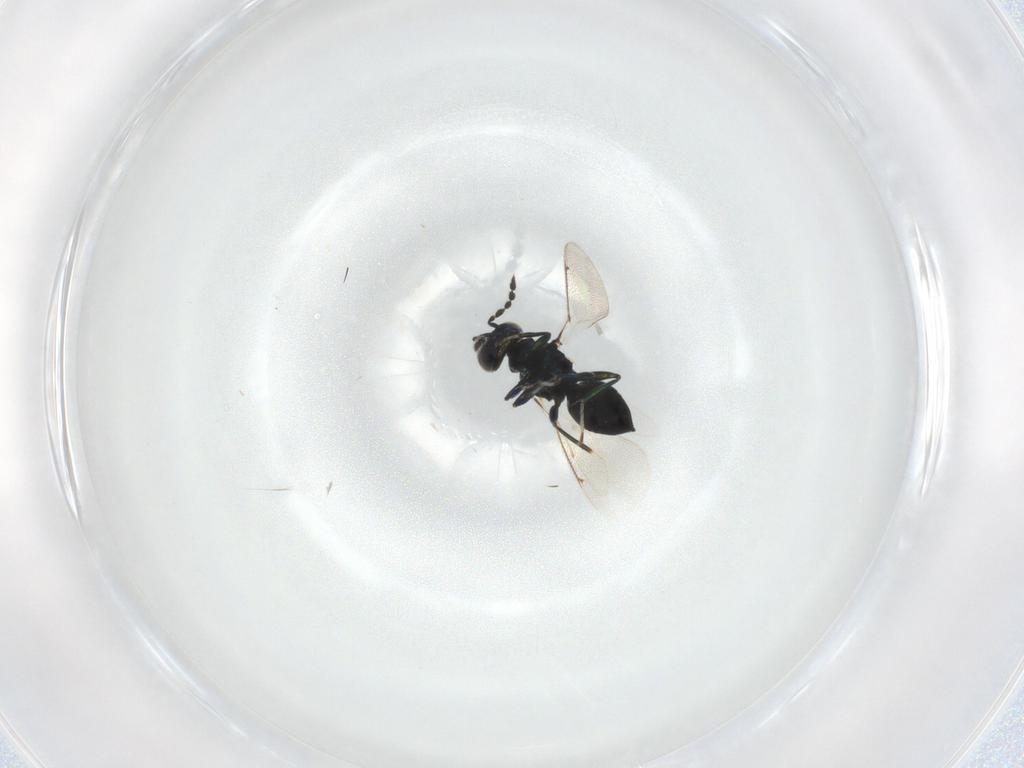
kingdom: Animalia
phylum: Arthropoda
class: Insecta
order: Hymenoptera
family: Eulophidae
